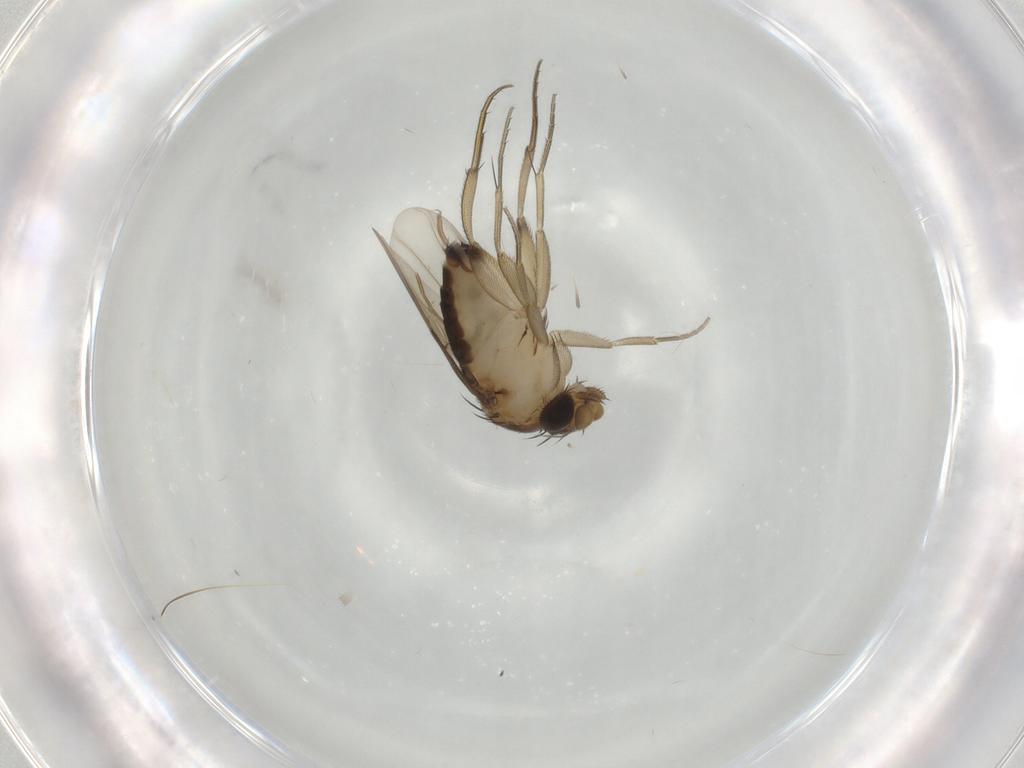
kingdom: Animalia
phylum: Arthropoda
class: Insecta
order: Diptera
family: Phoridae
